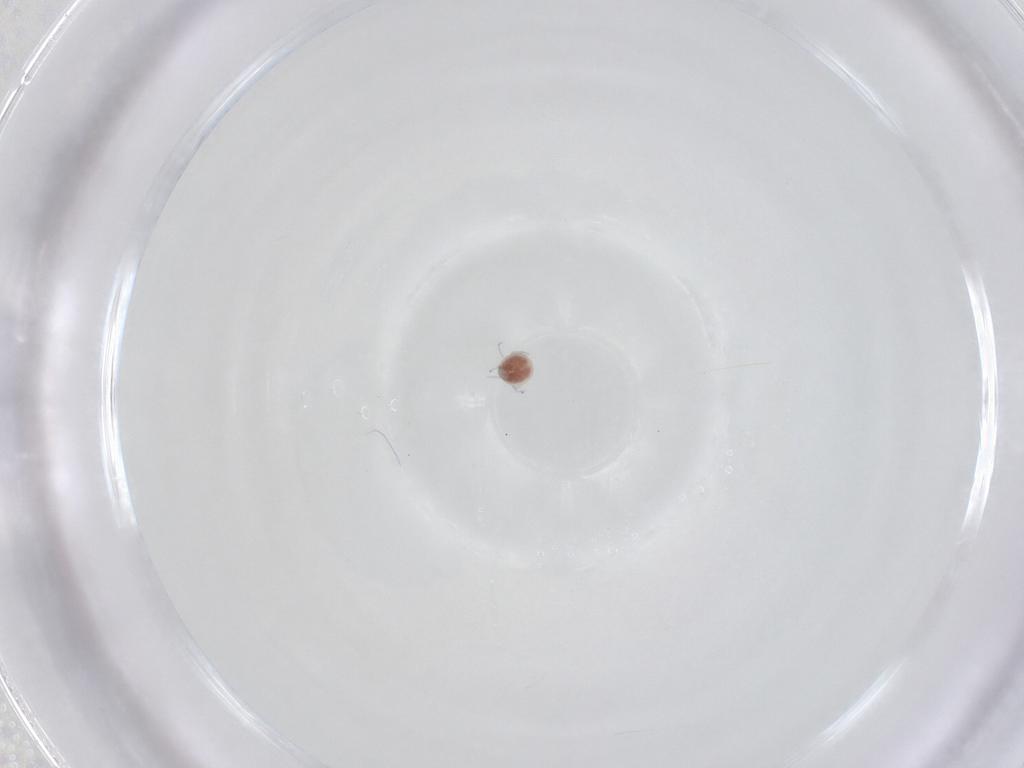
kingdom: Animalia
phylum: Arthropoda
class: Arachnida
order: Trombidiformes
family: Pionidae
